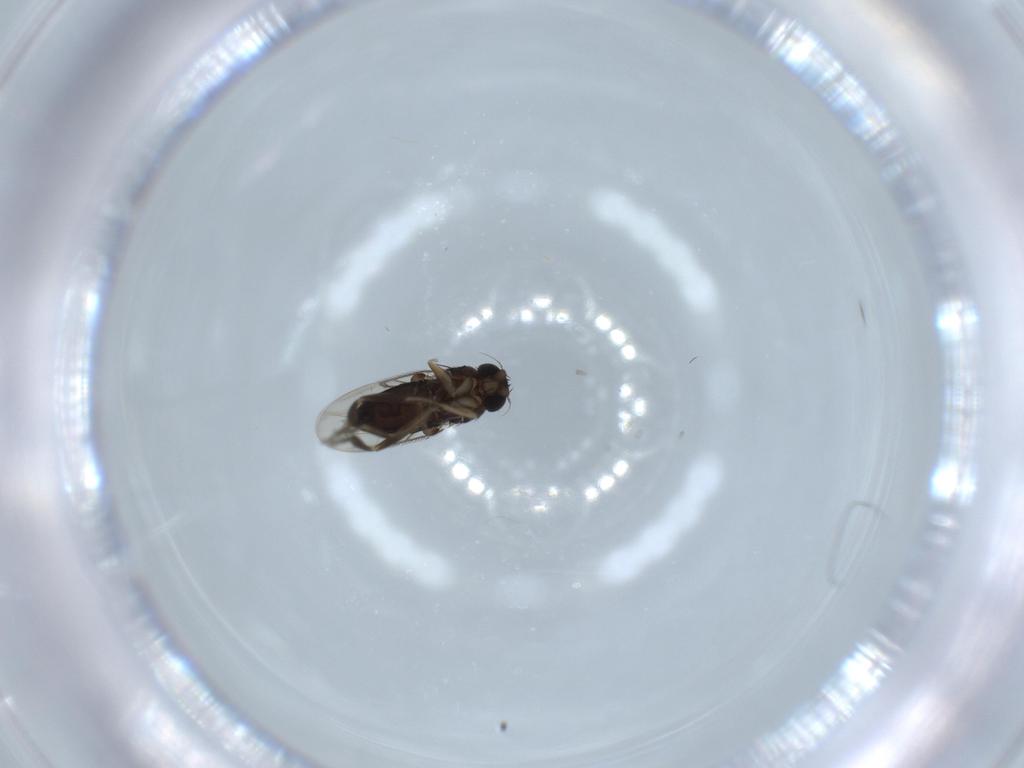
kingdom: Animalia
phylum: Arthropoda
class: Insecta
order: Diptera
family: Phoridae
